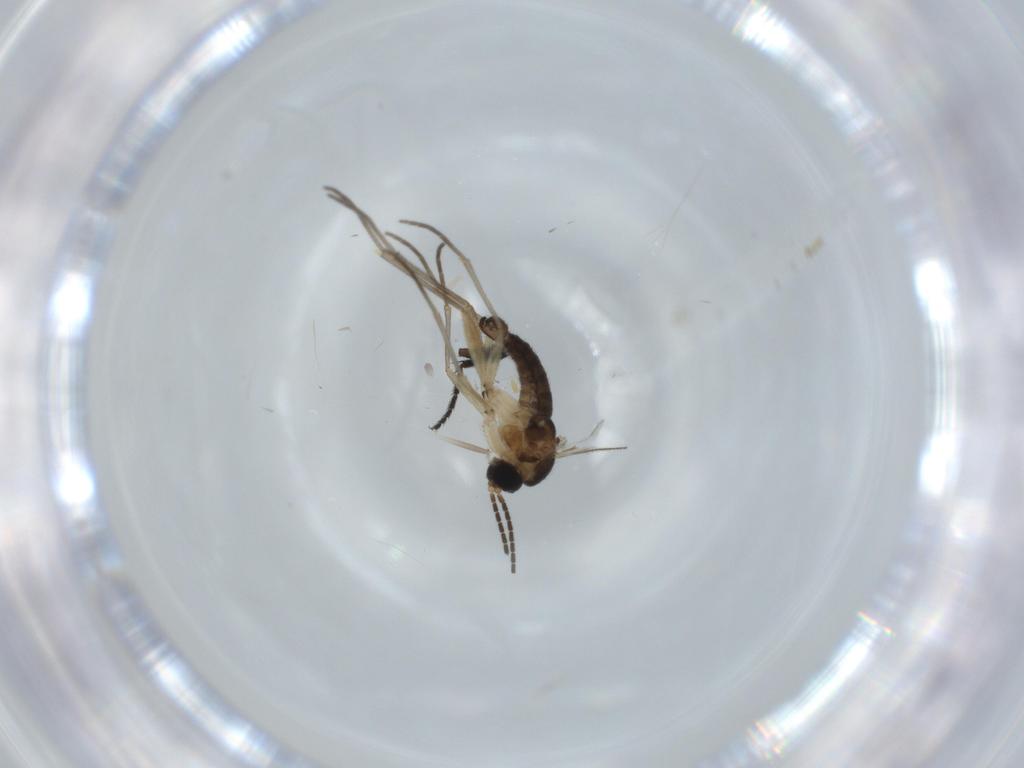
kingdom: Animalia
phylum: Arthropoda
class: Insecta
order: Diptera
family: Sciaridae
